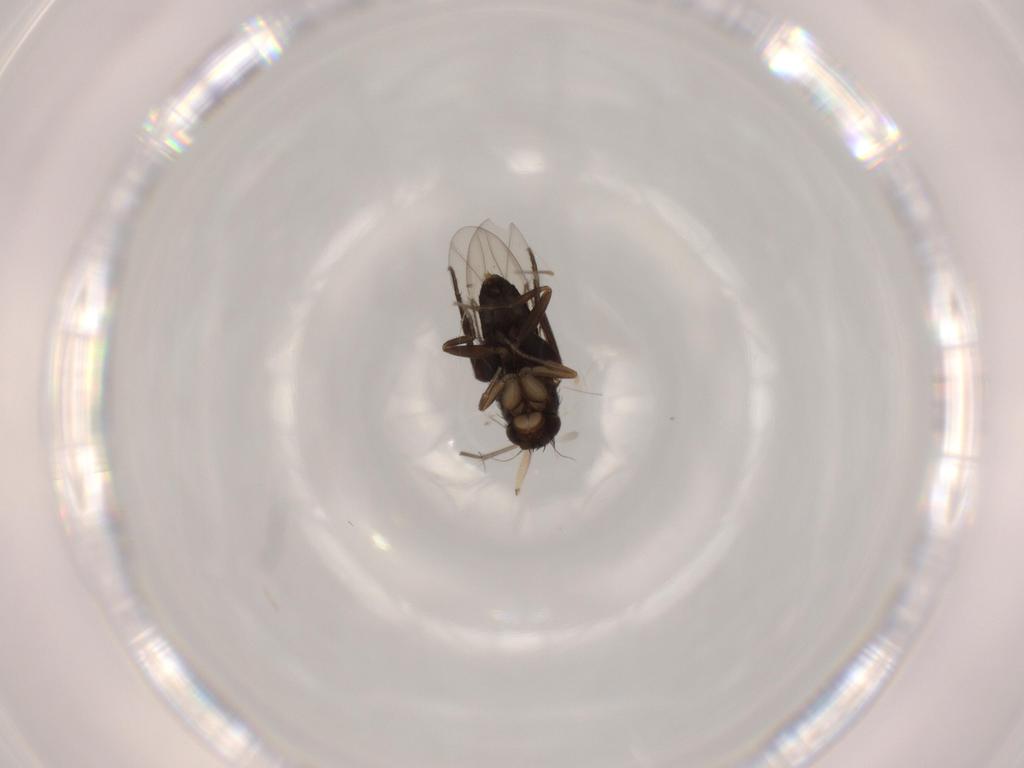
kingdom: Animalia
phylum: Arthropoda
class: Insecta
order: Diptera
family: Phoridae
